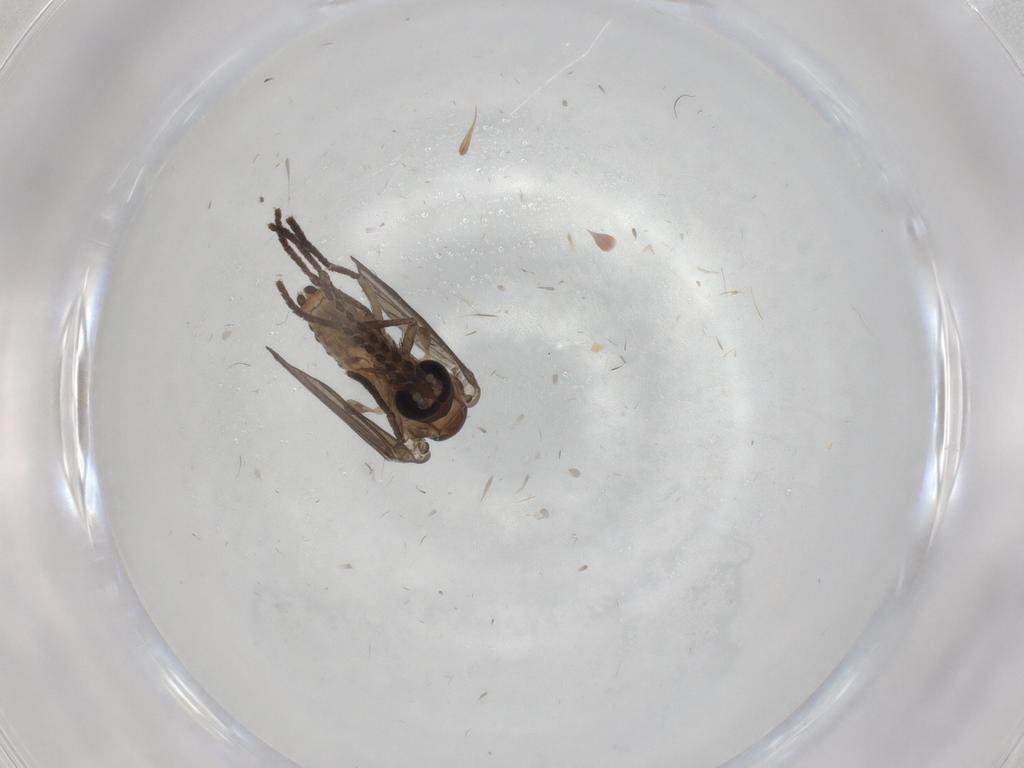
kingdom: Animalia
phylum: Arthropoda
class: Insecta
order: Diptera
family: Psychodidae
